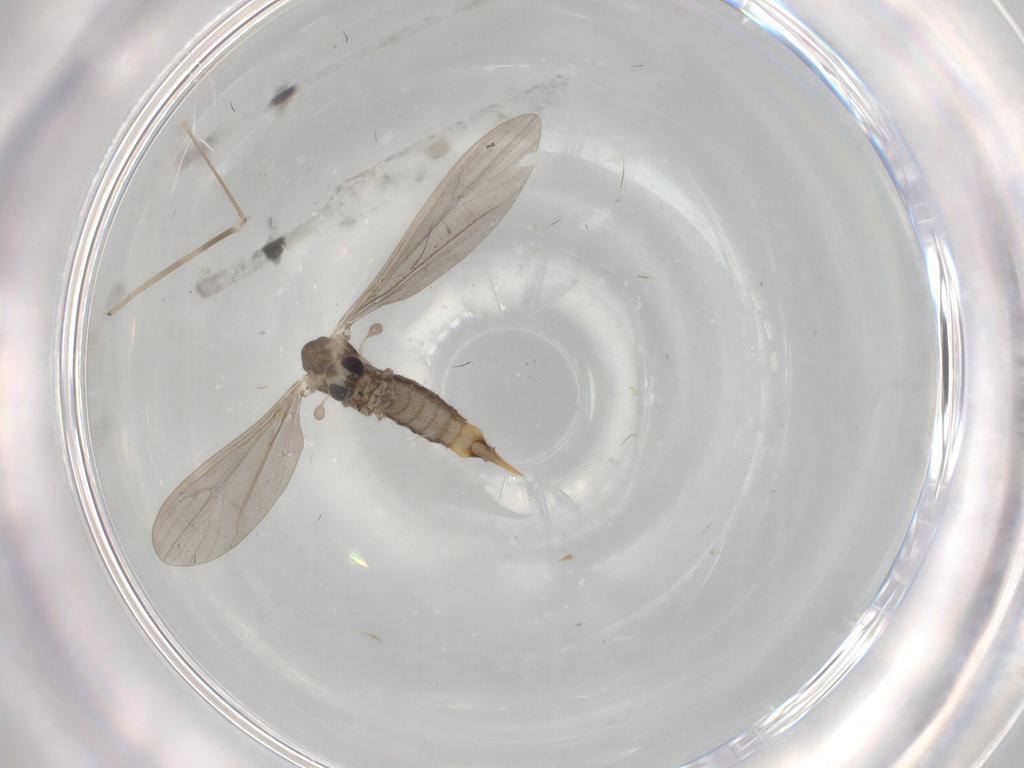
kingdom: Animalia
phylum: Arthropoda
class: Insecta
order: Diptera
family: Limoniidae
